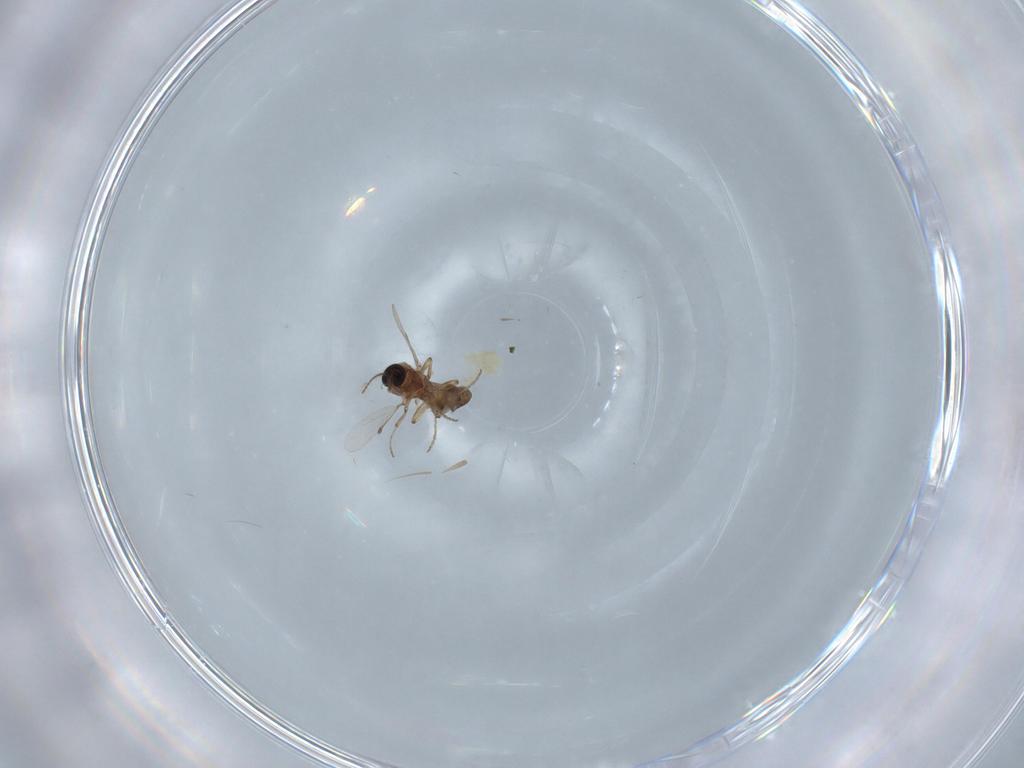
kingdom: Animalia
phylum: Arthropoda
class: Insecta
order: Diptera
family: Ceratopogonidae
